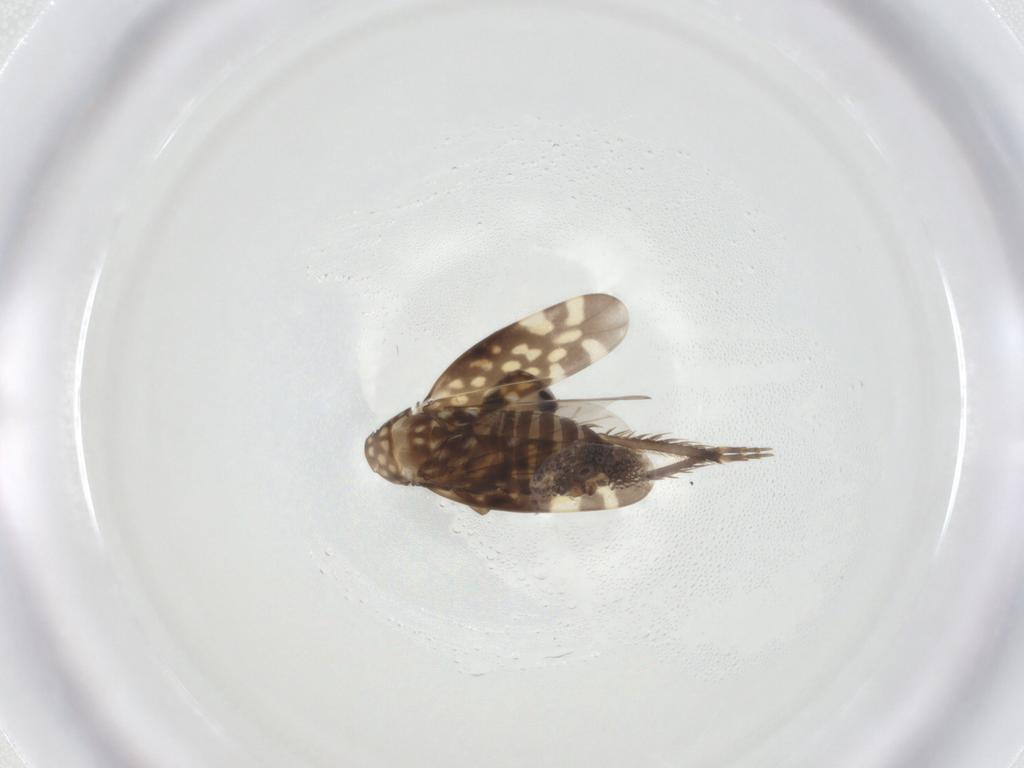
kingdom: Animalia
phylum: Arthropoda
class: Insecta
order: Hemiptera
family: Cicadellidae
